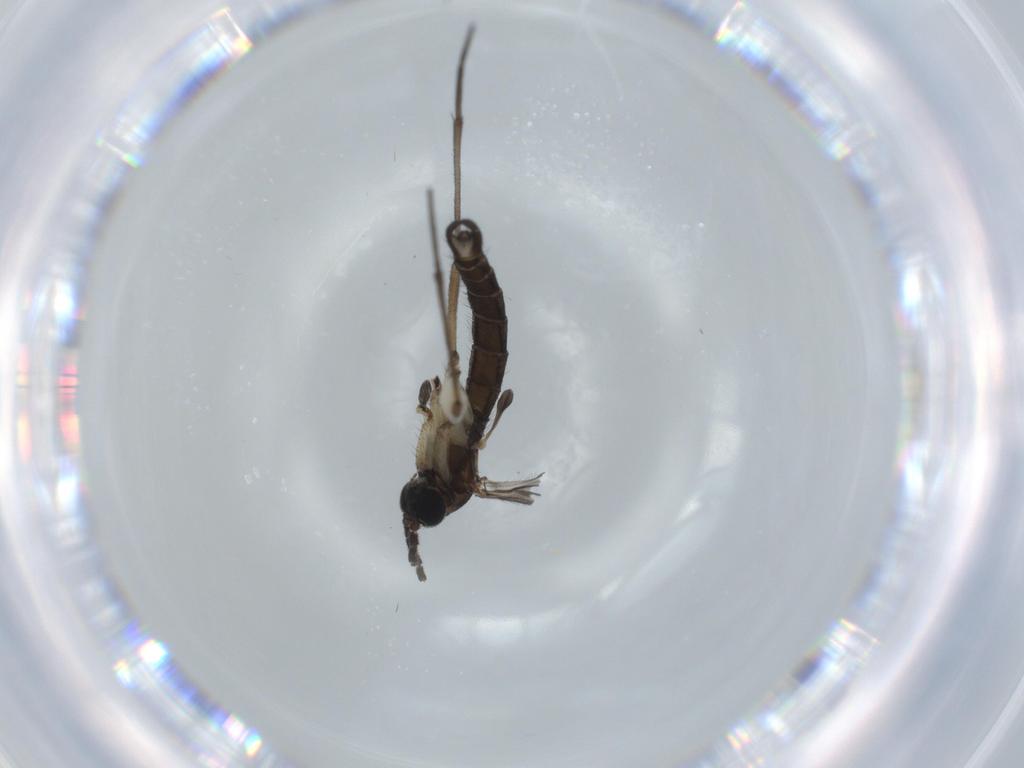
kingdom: Animalia
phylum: Arthropoda
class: Insecta
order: Diptera
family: Sciaridae
